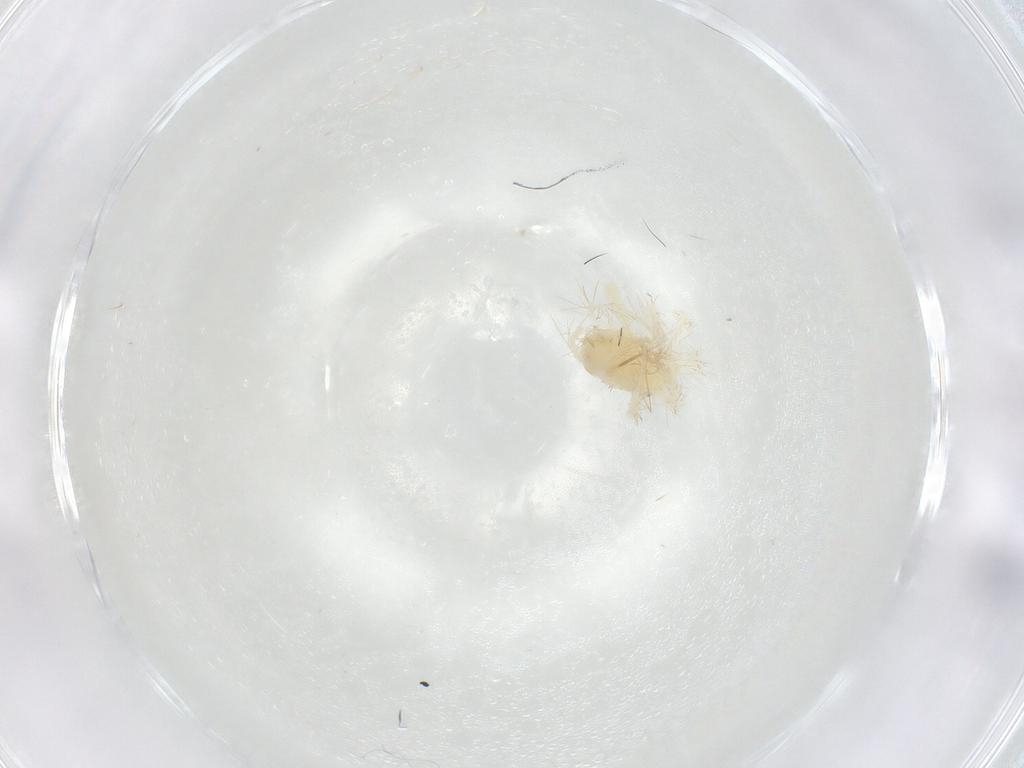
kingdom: Animalia
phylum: Arthropoda
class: Arachnida
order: Trombidiformes
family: Anystidae
